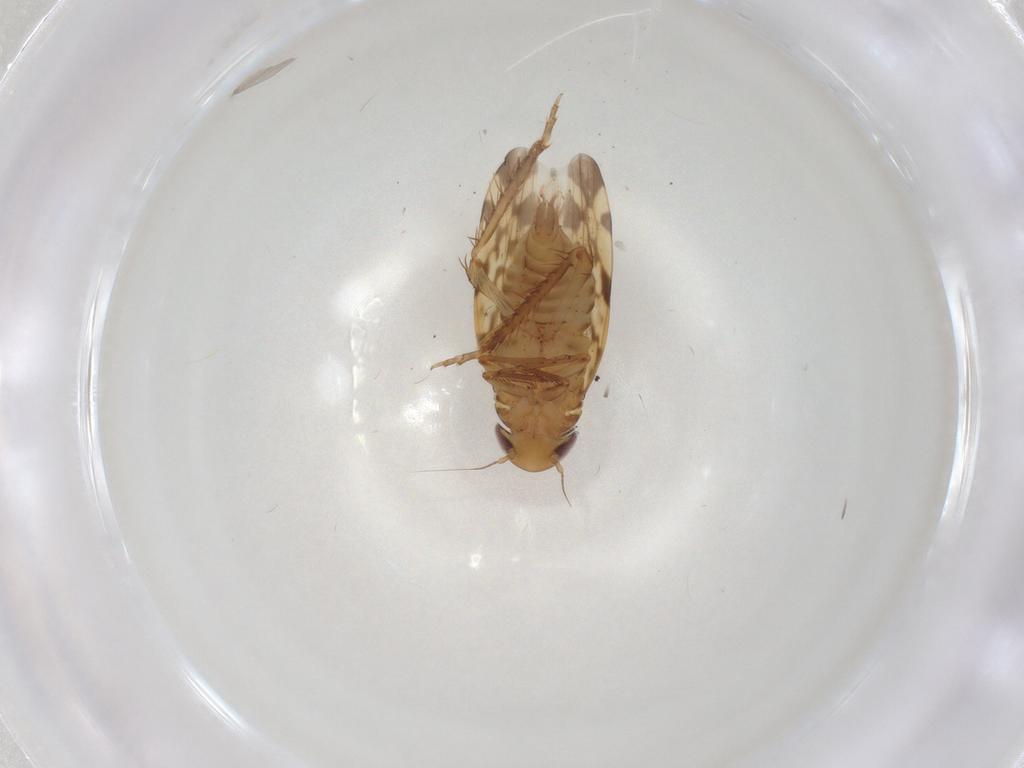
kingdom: Animalia
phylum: Arthropoda
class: Insecta
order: Hemiptera
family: Cicadellidae
